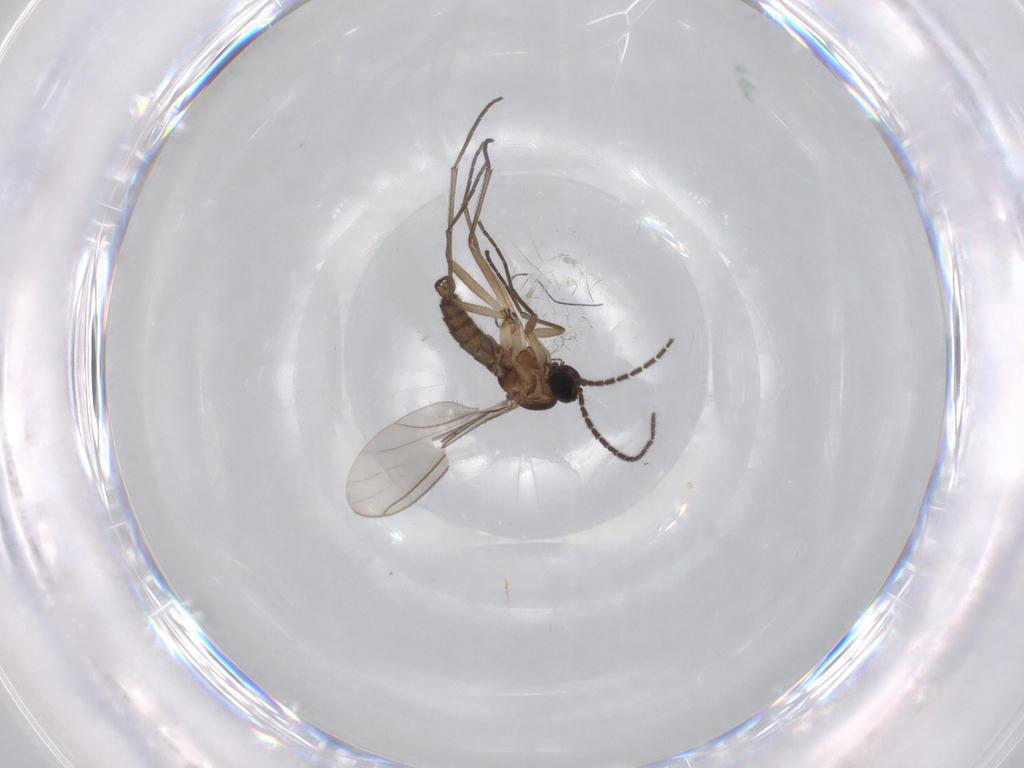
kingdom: Animalia
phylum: Arthropoda
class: Insecta
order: Diptera
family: Sciaridae
